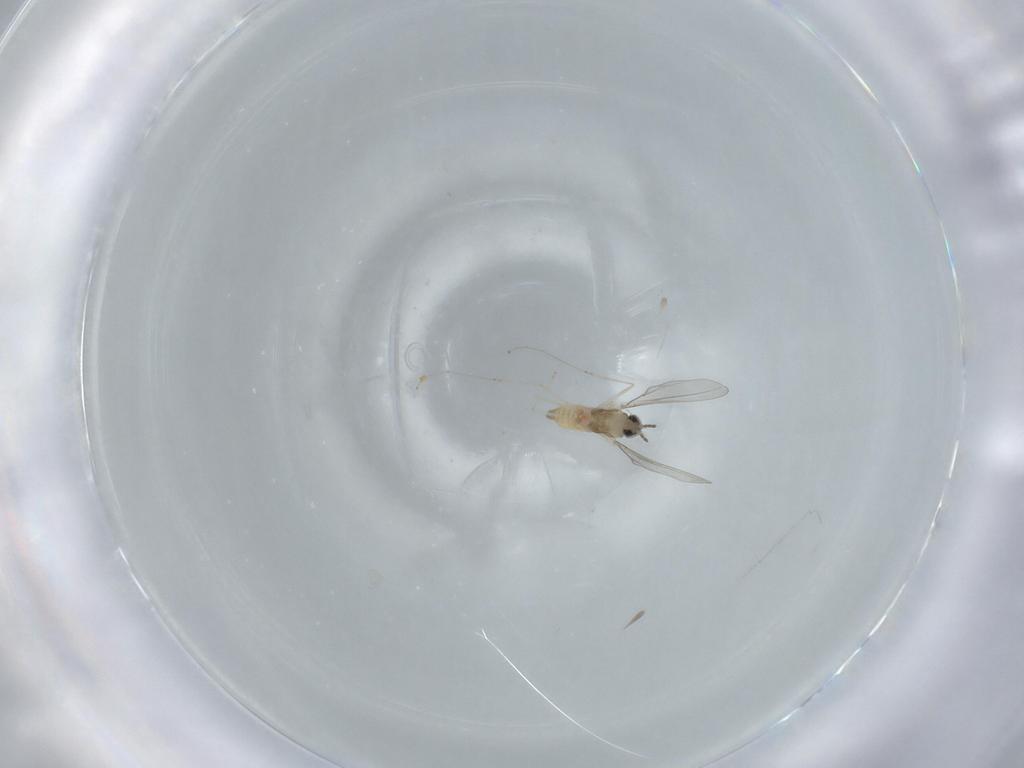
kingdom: Animalia
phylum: Arthropoda
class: Insecta
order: Diptera
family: Cecidomyiidae
